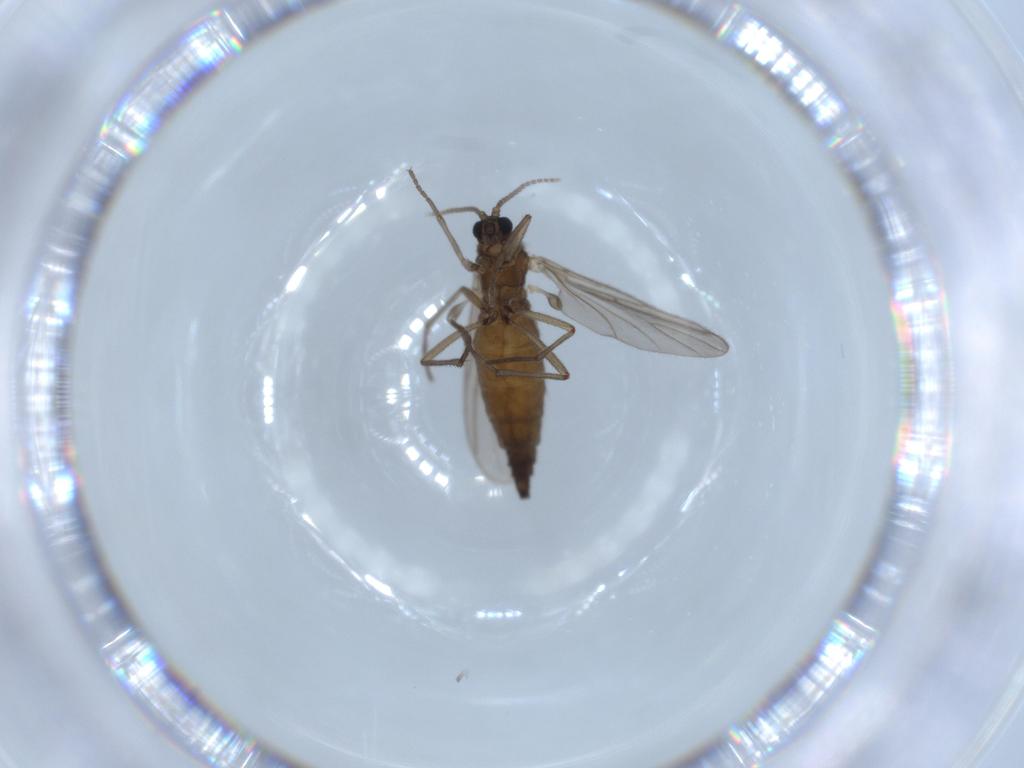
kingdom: Animalia
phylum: Arthropoda
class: Insecta
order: Diptera
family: Sciaridae
